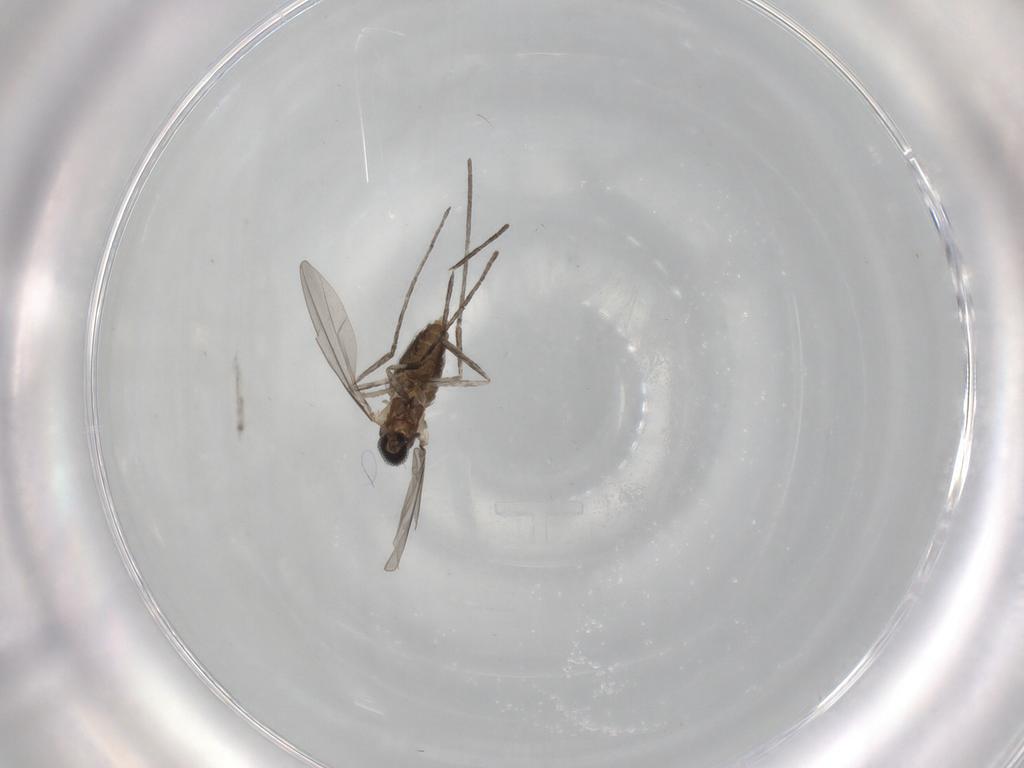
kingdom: Animalia
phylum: Arthropoda
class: Insecta
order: Diptera
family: Cecidomyiidae
